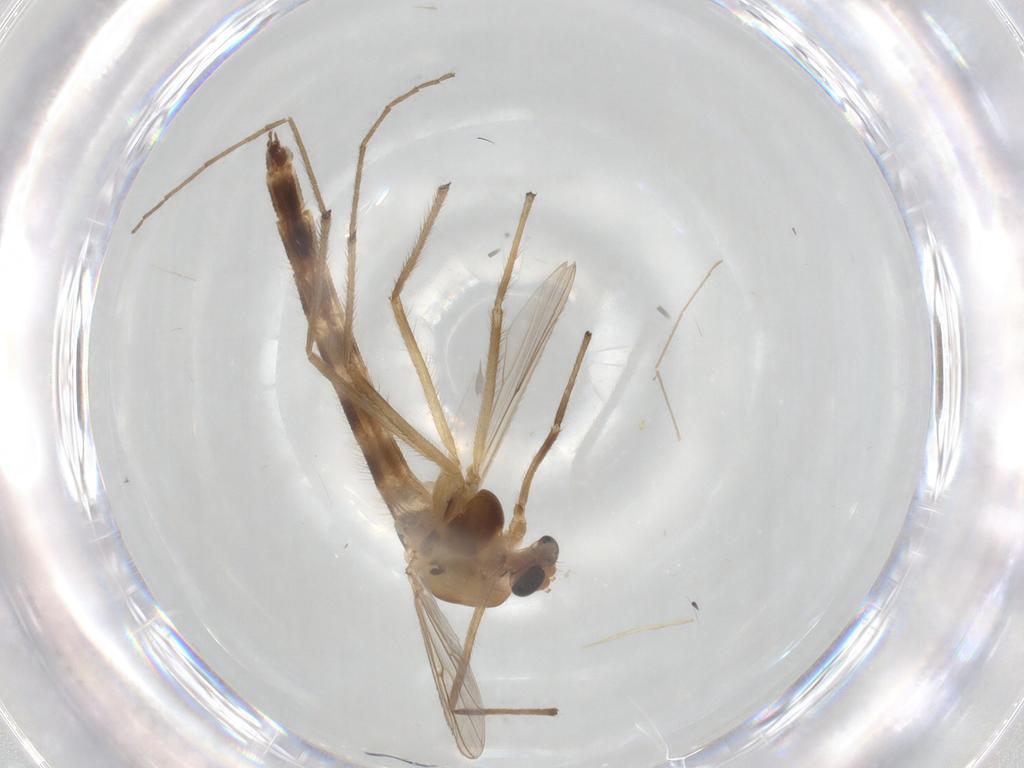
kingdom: Animalia
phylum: Arthropoda
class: Insecta
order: Diptera
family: Chironomidae
